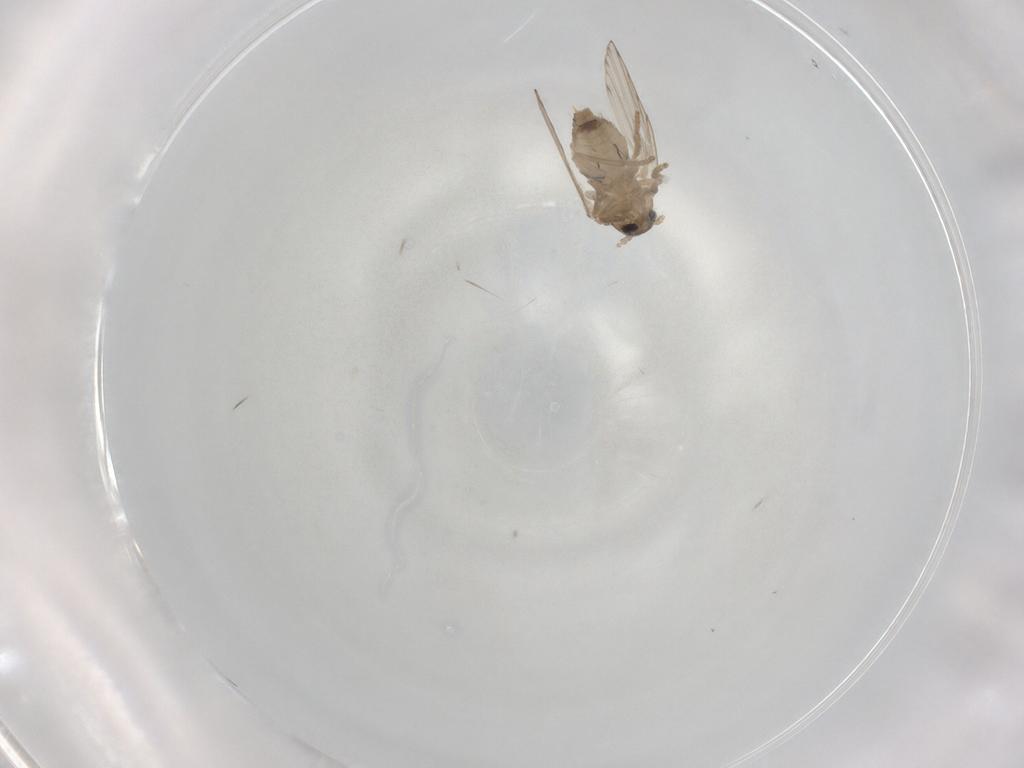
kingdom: Animalia
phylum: Arthropoda
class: Insecta
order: Diptera
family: Psychodidae
